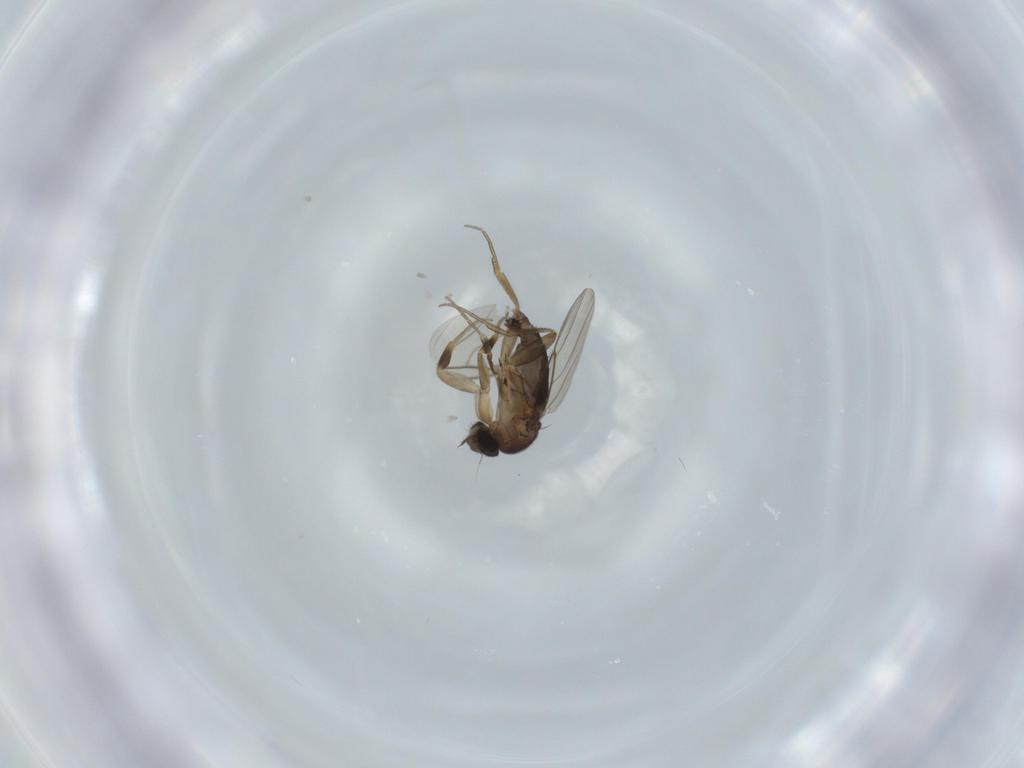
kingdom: Animalia
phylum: Arthropoda
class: Insecta
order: Diptera
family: Phoridae
